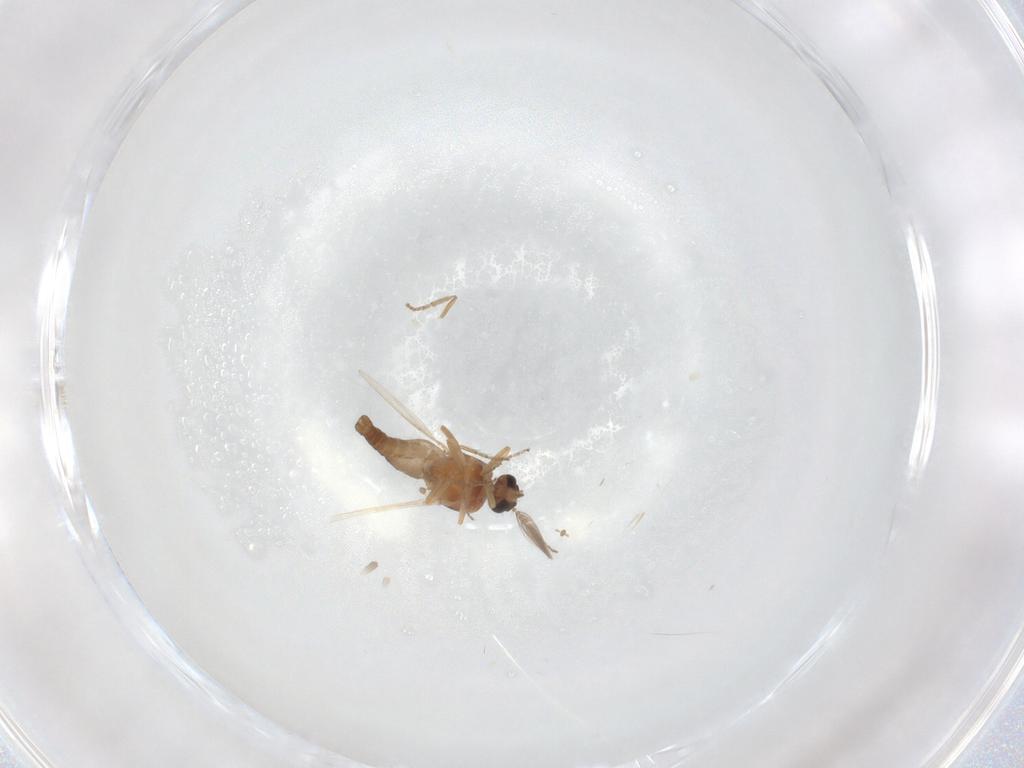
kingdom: Animalia
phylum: Arthropoda
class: Insecta
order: Diptera
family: Ceratopogonidae
